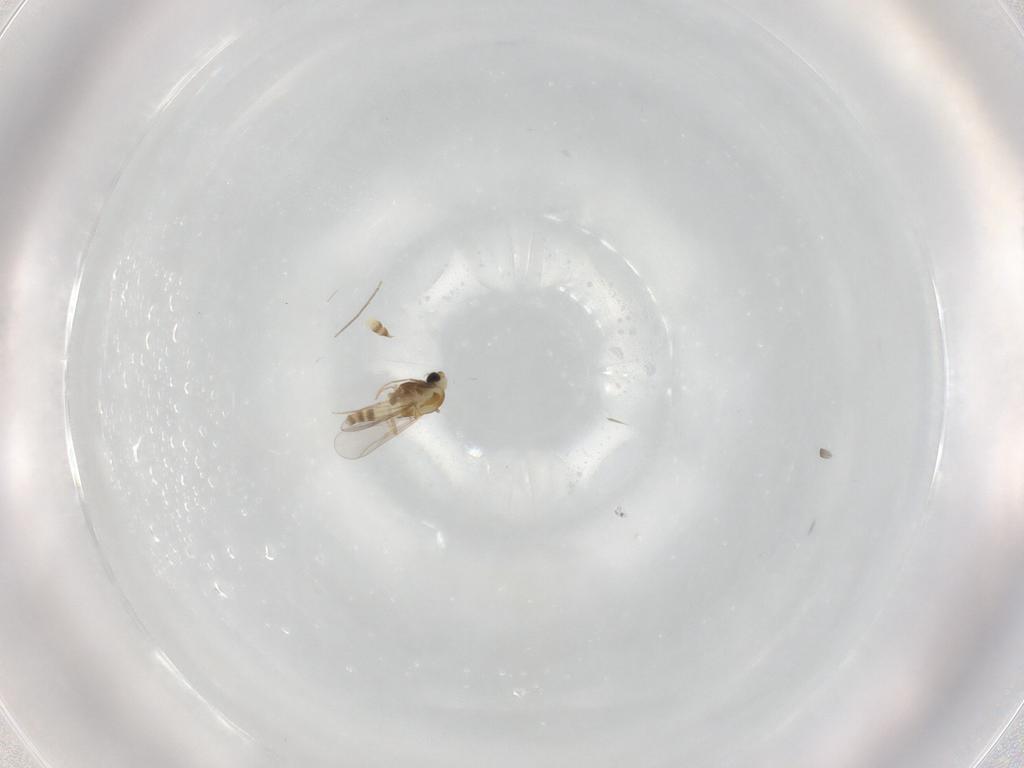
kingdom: Animalia
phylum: Arthropoda
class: Insecta
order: Diptera
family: Cecidomyiidae
